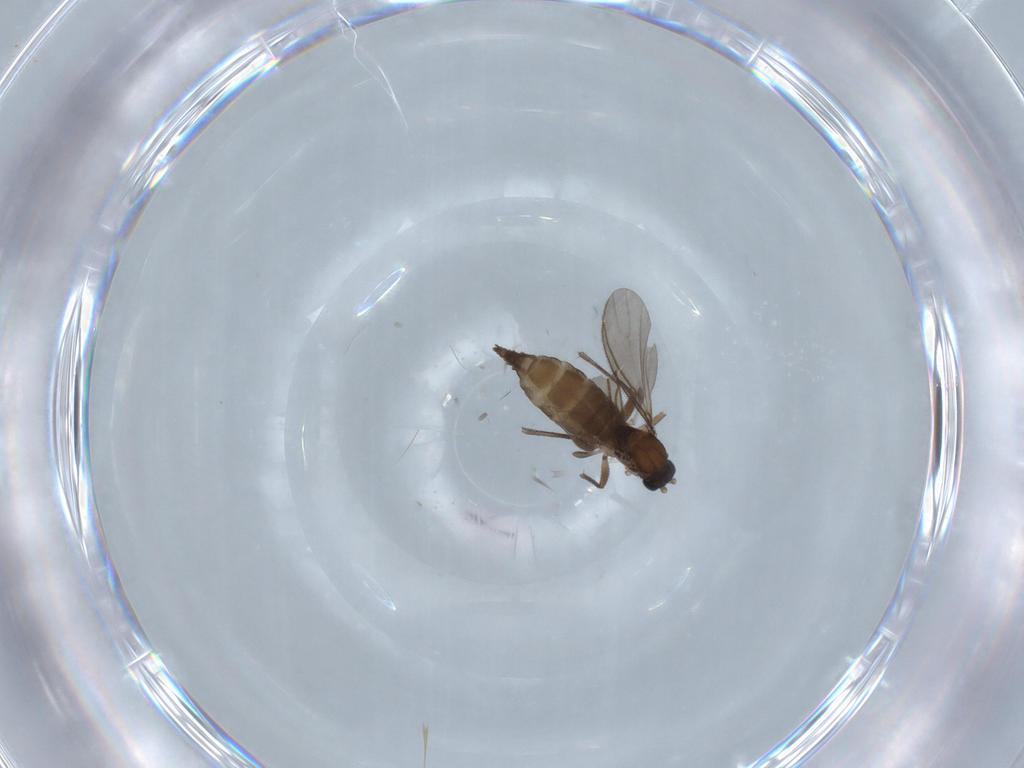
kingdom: Animalia
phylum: Arthropoda
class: Insecta
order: Diptera
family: Sciaridae
